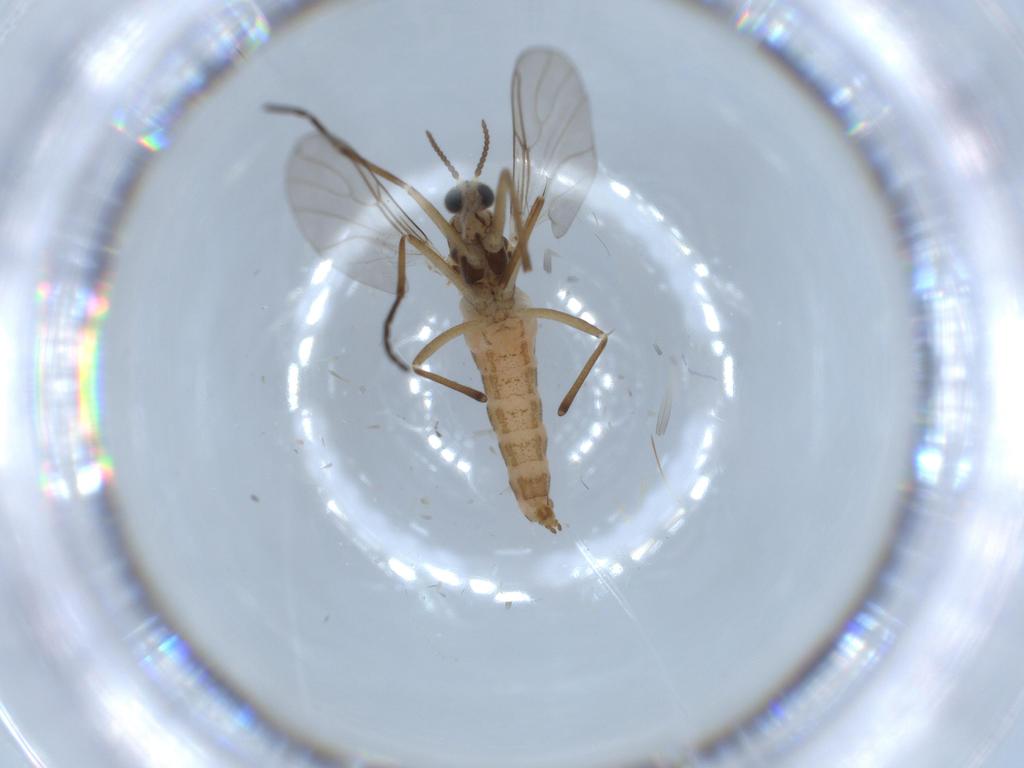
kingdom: Animalia
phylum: Arthropoda
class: Insecta
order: Diptera
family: Cecidomyiidae
